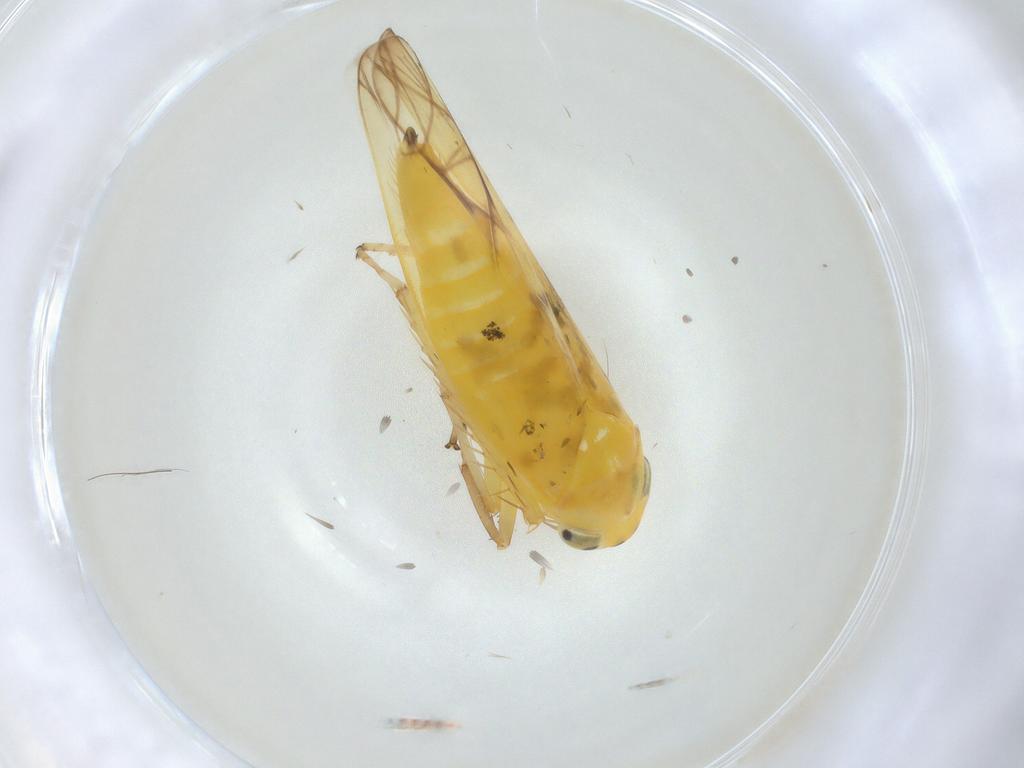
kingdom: Animalia
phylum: Arthropoda
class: Insecta
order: Hemiptera
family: Cicadellidae
